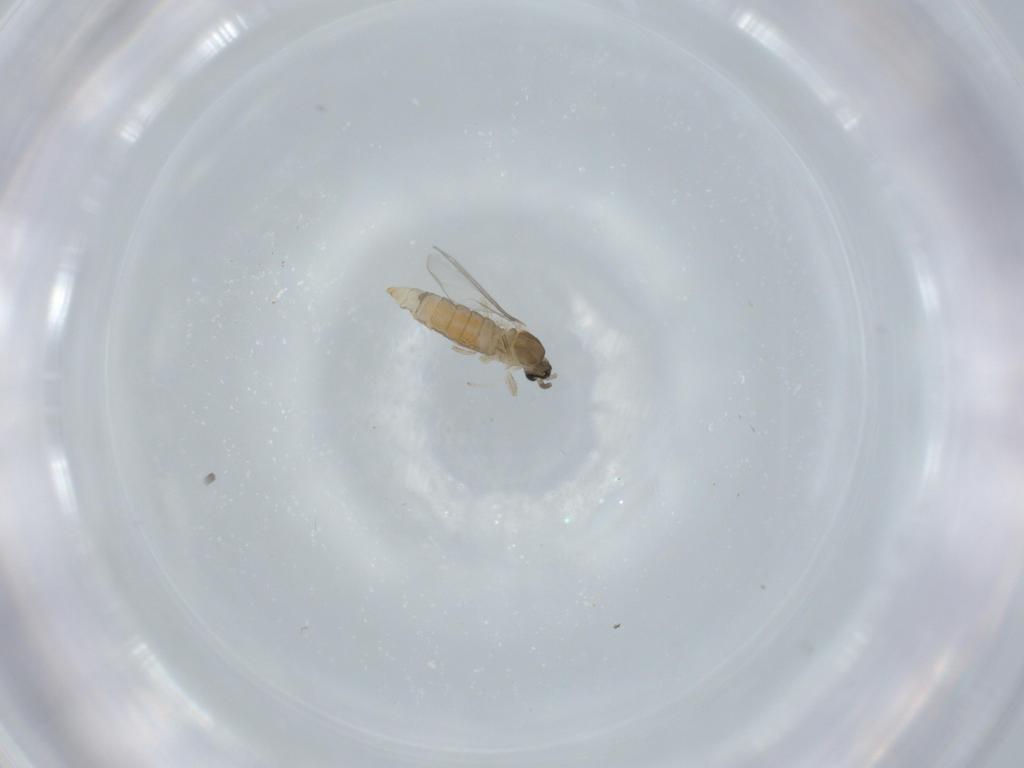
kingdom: Animalia
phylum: Arthropoda
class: Insecta
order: Diptera
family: Cecidomyiidae
